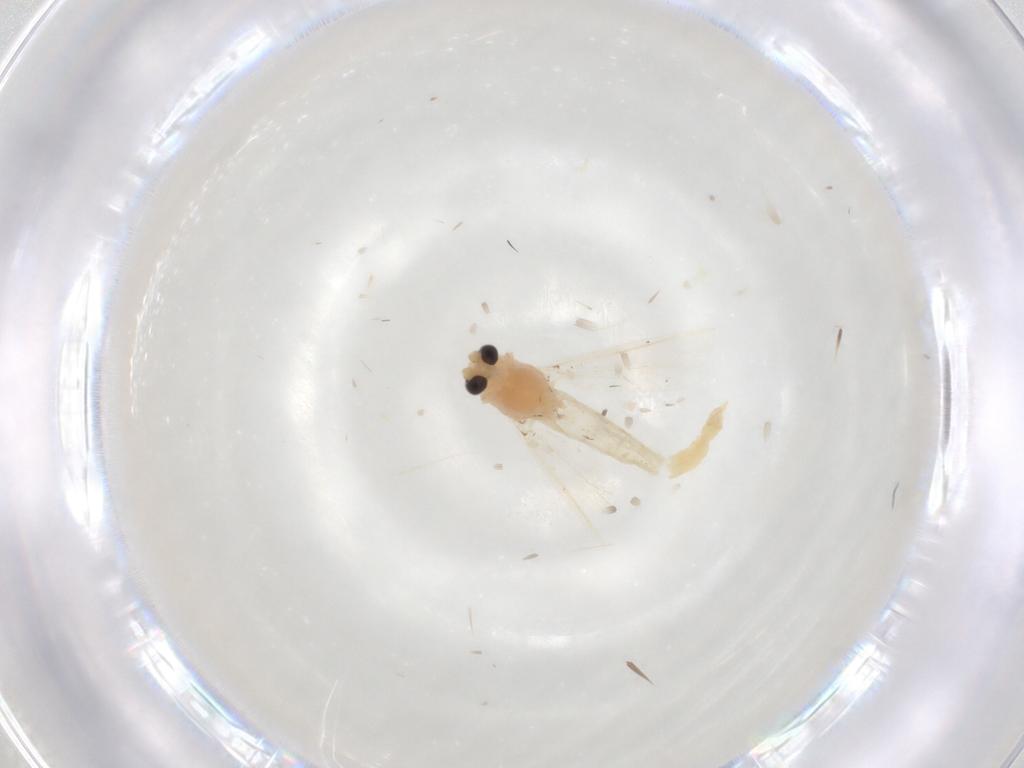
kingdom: Animalia
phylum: Arthropoda
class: Insecta
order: Diptera
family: Chironomidae
